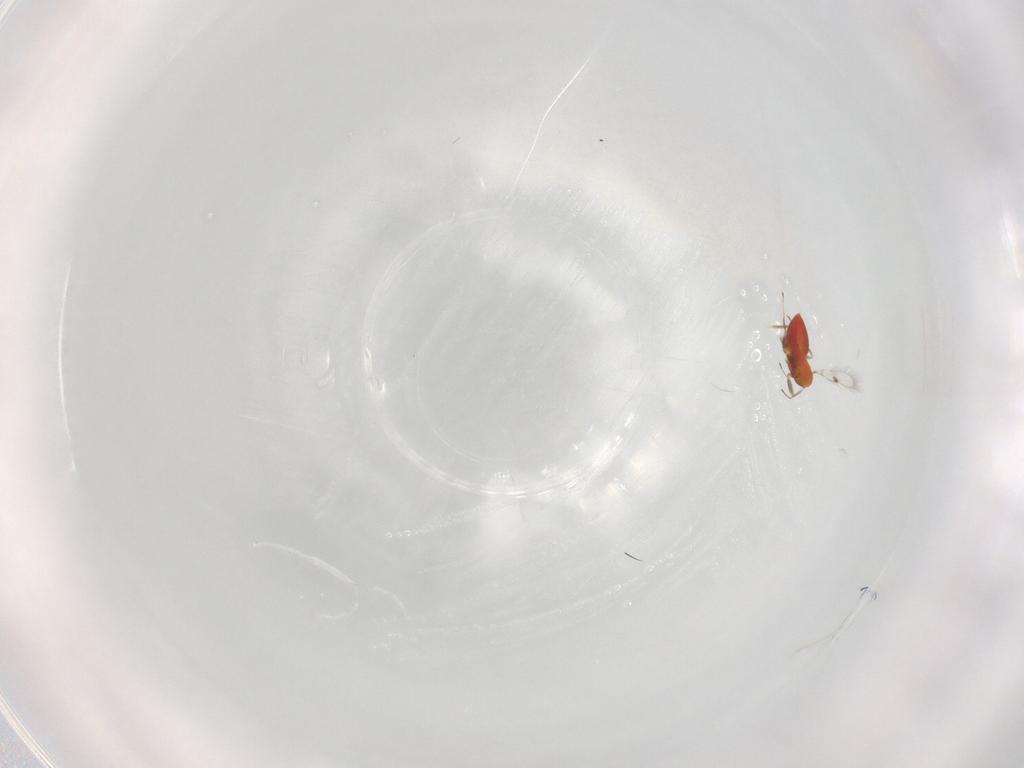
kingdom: Animalia
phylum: Arthropoda
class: Insecta
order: Hymenoptera
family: Trichogrammatidae
